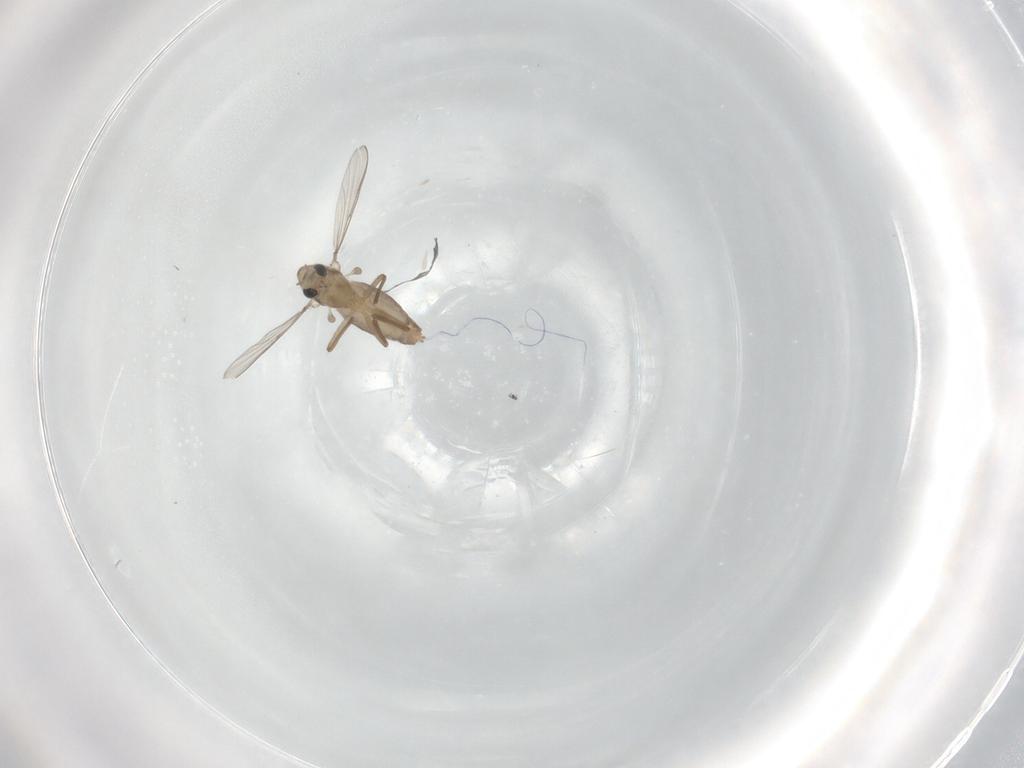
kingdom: Animalia
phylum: Arthropoda
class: Insecta
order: Diptera
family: Chironomidae
